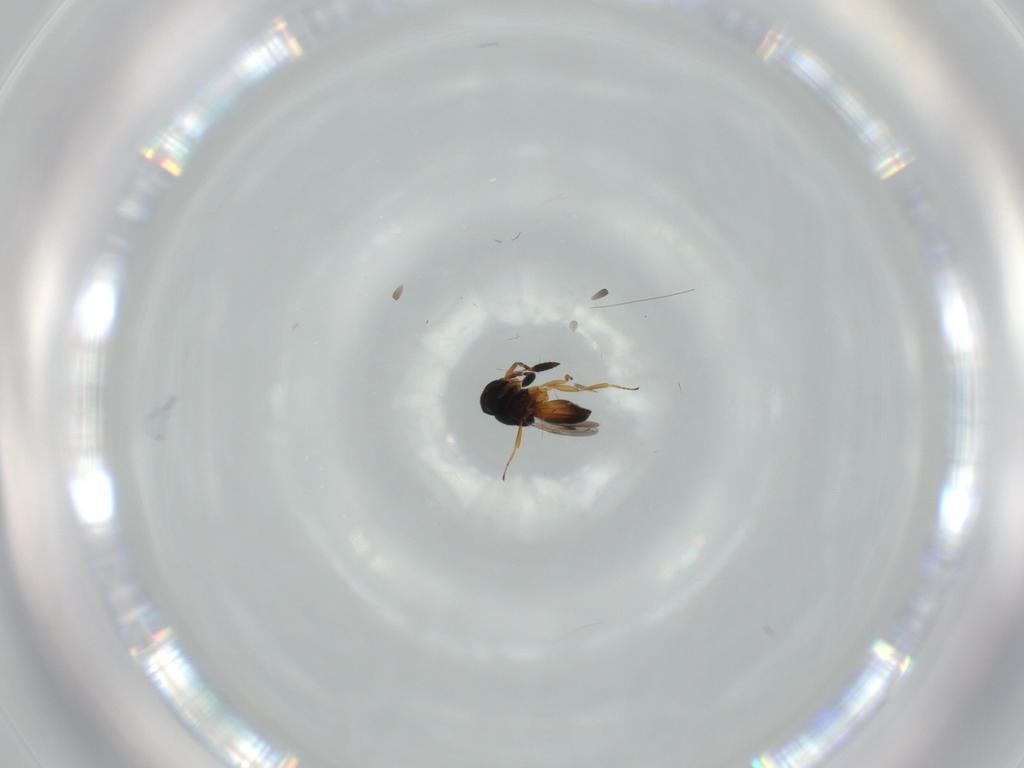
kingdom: Animalia
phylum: Arthropoda
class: Insecta
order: Hymenoptera
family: Scelionidae
